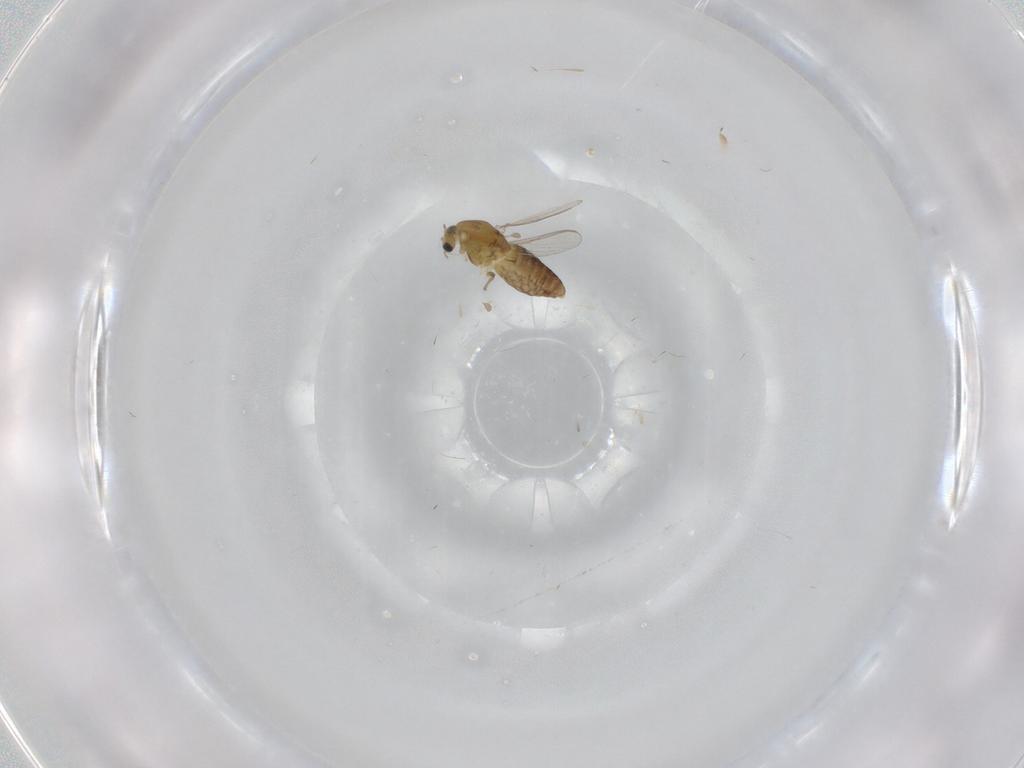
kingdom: Animalia
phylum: Arthropoda
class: Insecta
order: Diptera
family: Chironomidae
